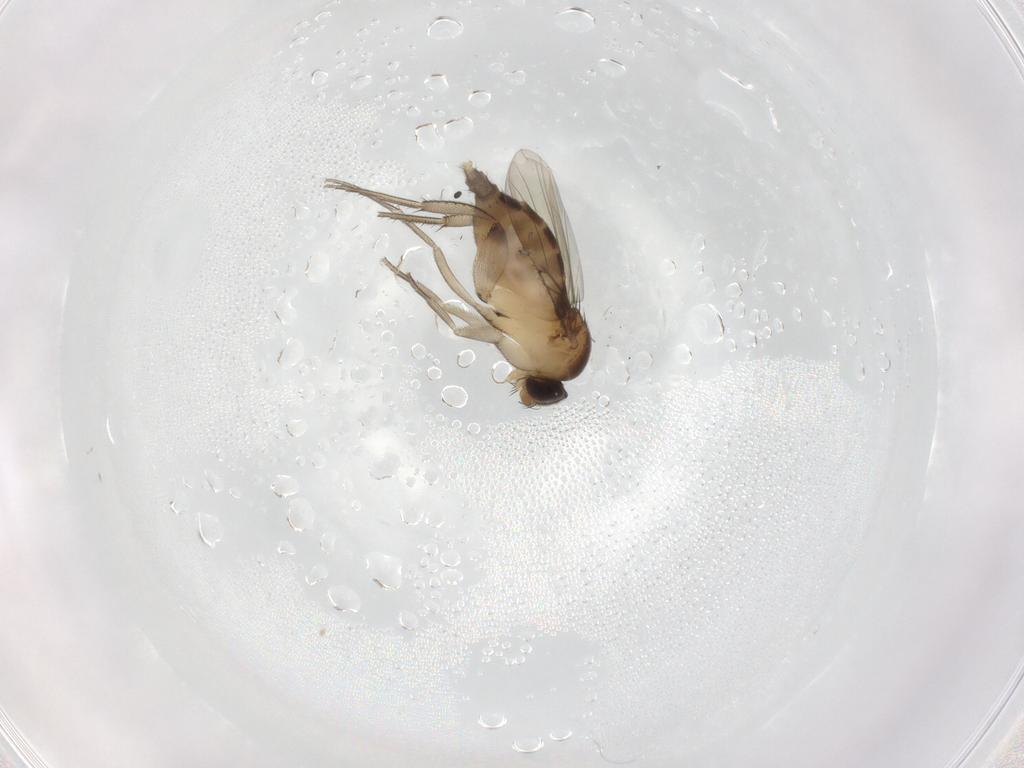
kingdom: Animalia
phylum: Arthropoda
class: Insecta
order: Diptera
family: Phoridae
